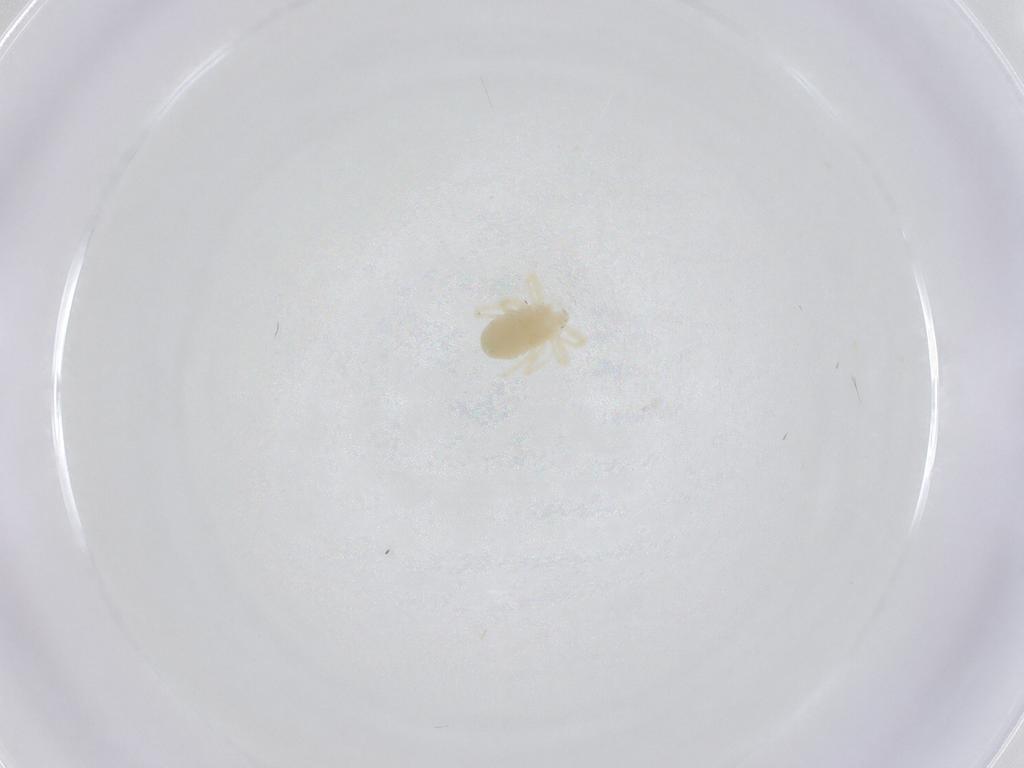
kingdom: Animalia
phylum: Arthropoda
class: Arachnida
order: Trombidiformes
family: Anystidae
